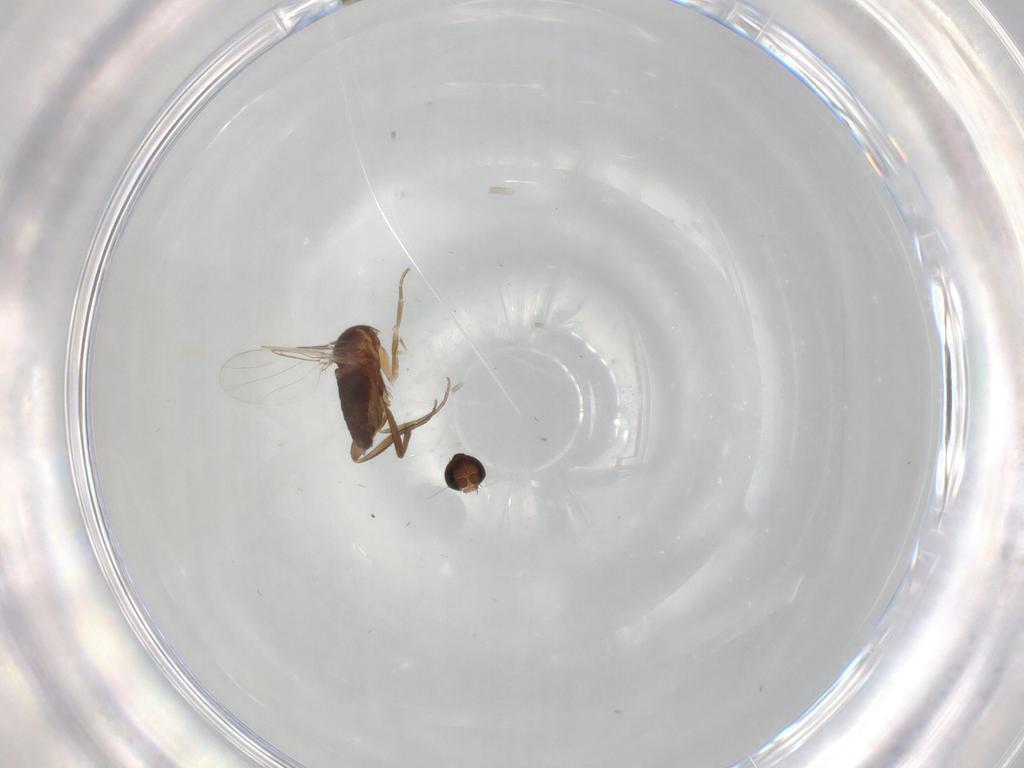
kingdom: Animalia
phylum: Arthropoda
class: Insecta
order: Diptera
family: Phoridae
